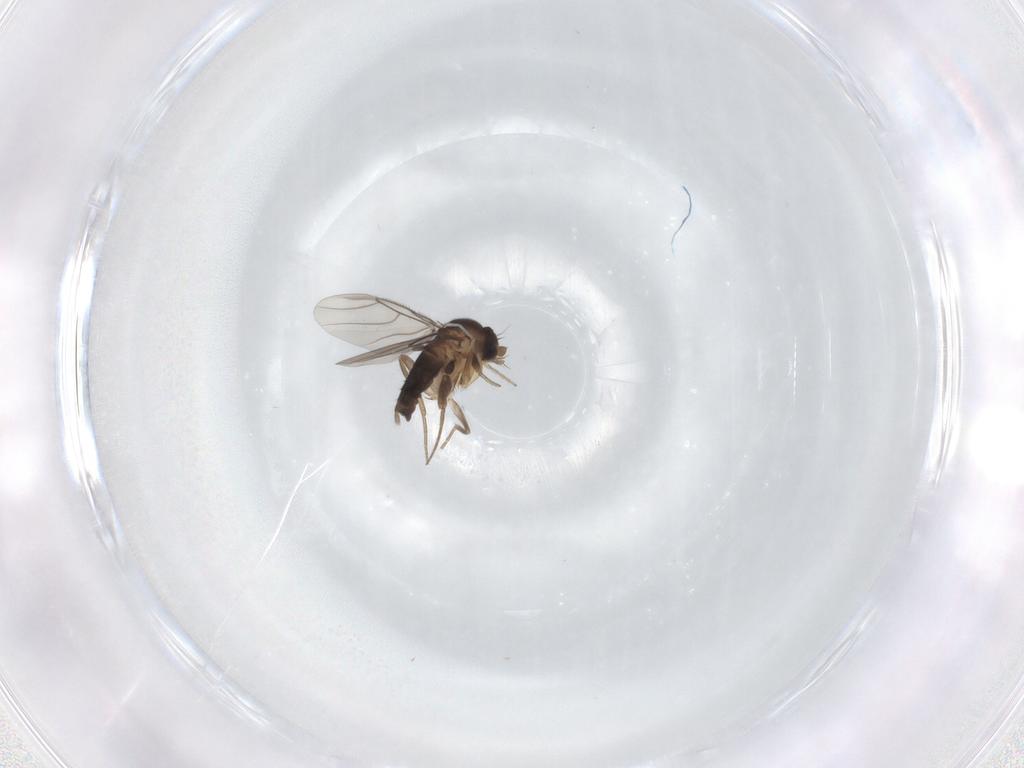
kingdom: Animalia
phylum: Arthropoda
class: Insecta
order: Diptera
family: Phoridae
